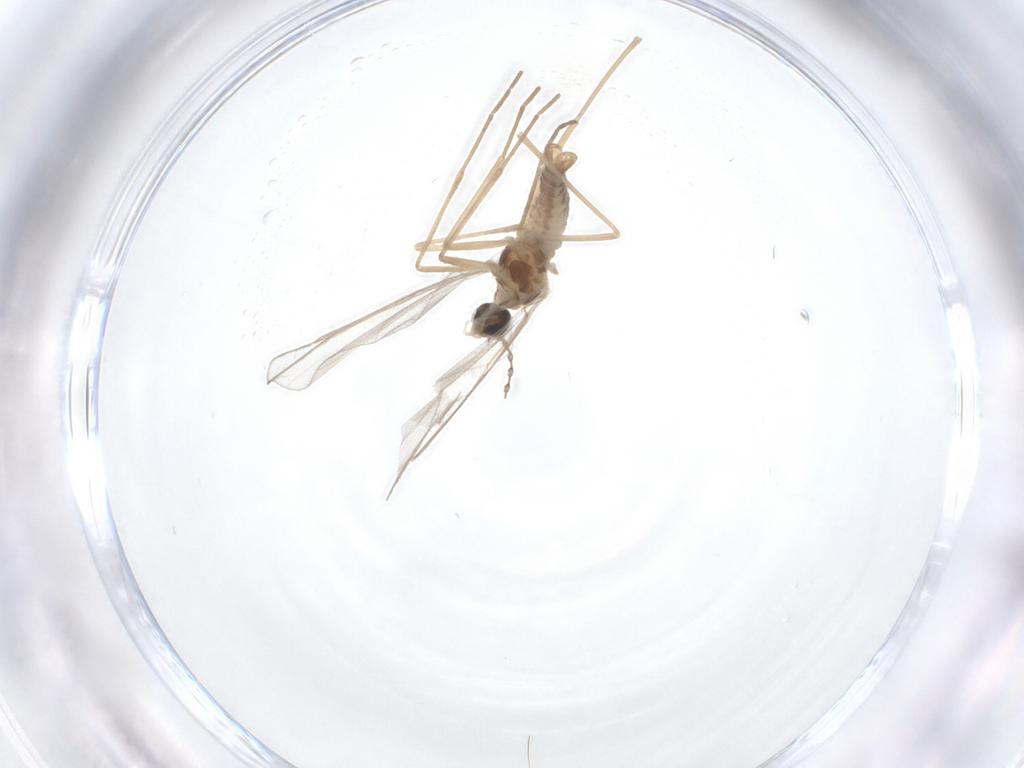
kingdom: Animalia
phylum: Arthropoda
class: Insecta
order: Diptera
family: Cecidomyiidae
